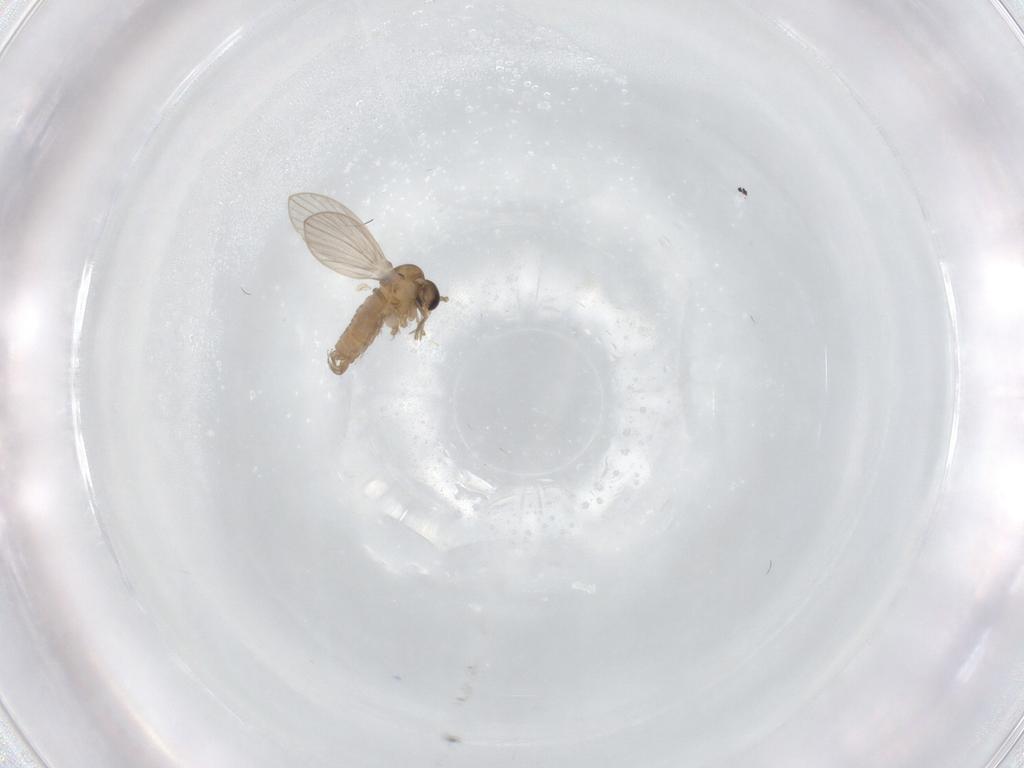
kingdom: Animalia
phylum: Arthropoda
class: Insecta
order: Diptera
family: Psychodidae
